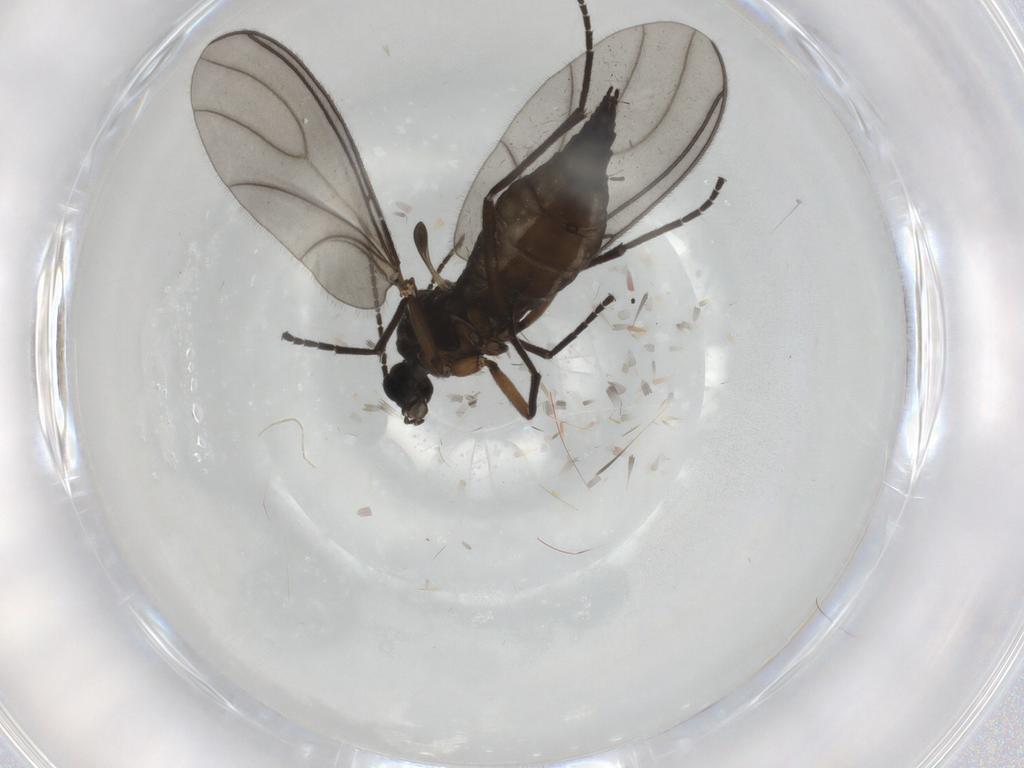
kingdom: Animalia
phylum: Arthropoda
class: Insecta
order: Diptera
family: Sciaridae
